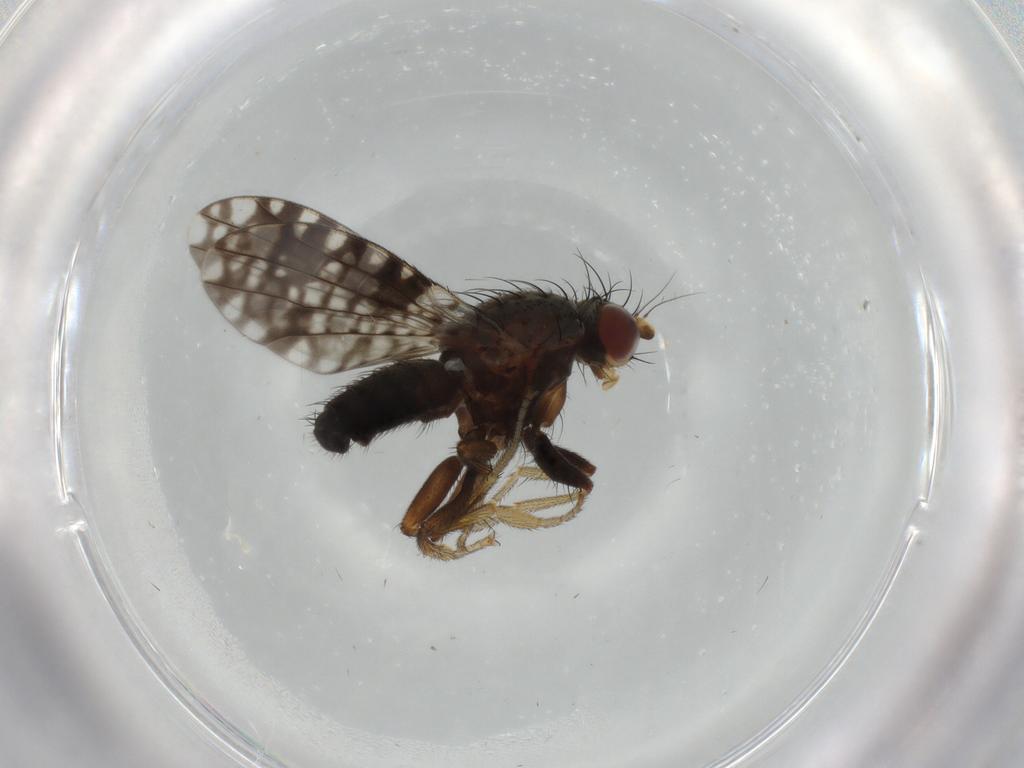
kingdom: Animalia
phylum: Arthropoda
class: Insecta
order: Diptera
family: Tephritidae
